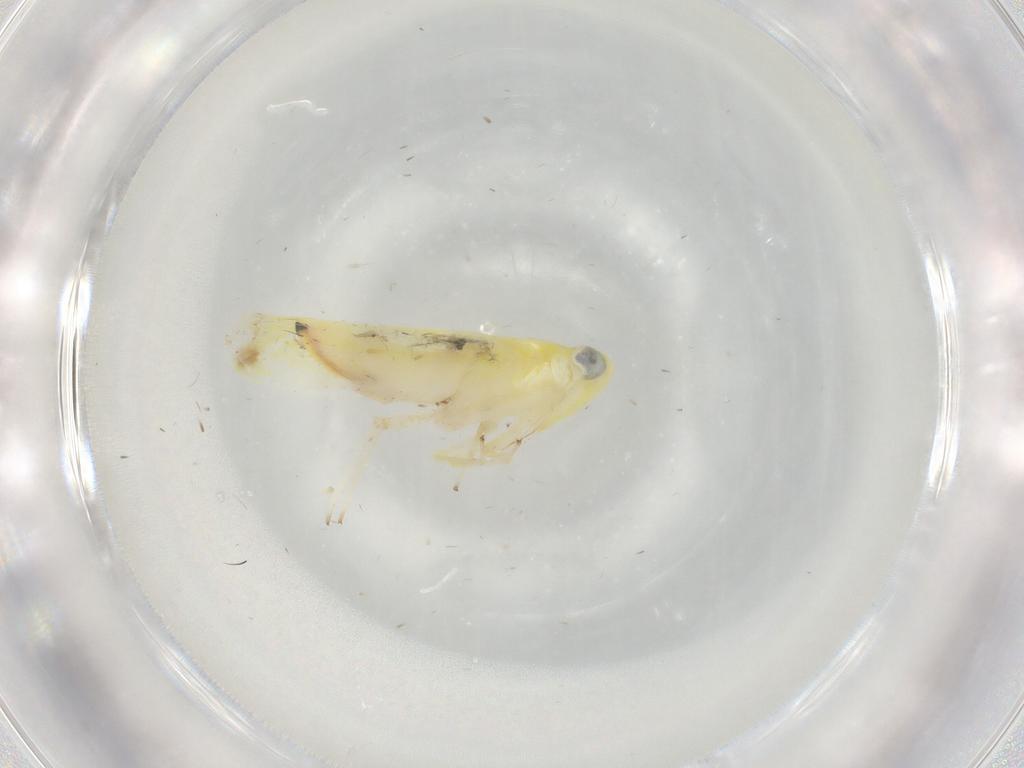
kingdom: Animalia
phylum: Arthropoda
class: Insecta
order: Hemiptera
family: Cicadellidae
